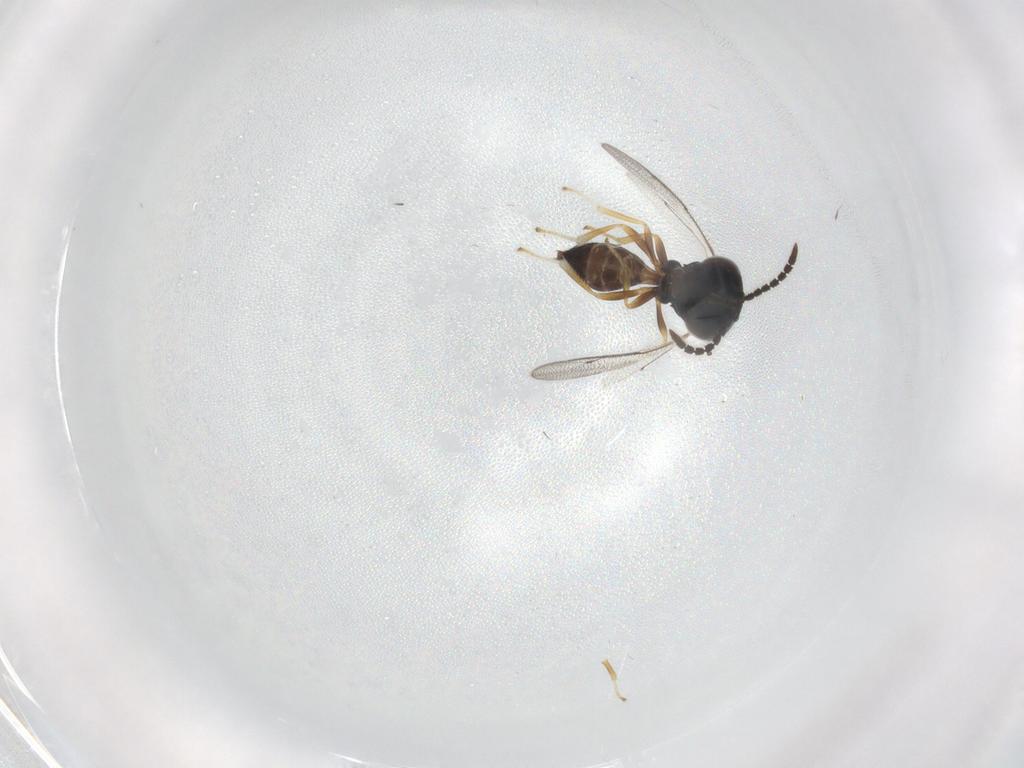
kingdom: Animalia
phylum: Arthropoda
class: Insecta
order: Hymenoptera
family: Pteromalidae
